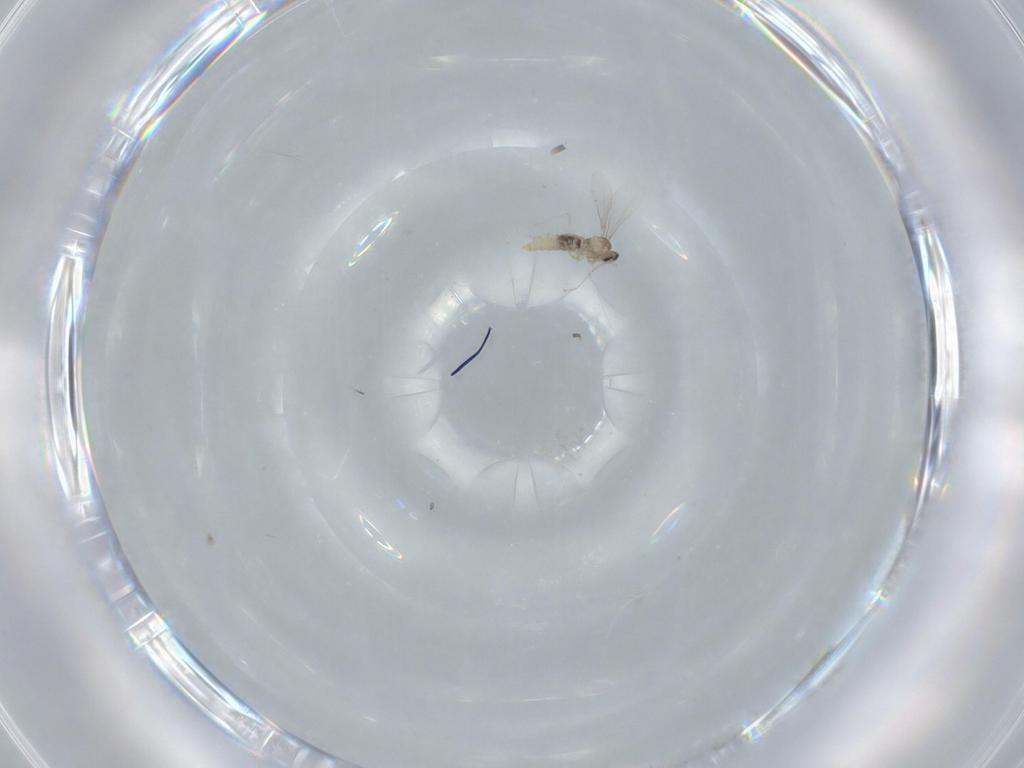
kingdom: Animalia
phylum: Arthropoda
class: Insecta
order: Diptera
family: Cecidomyiidae
